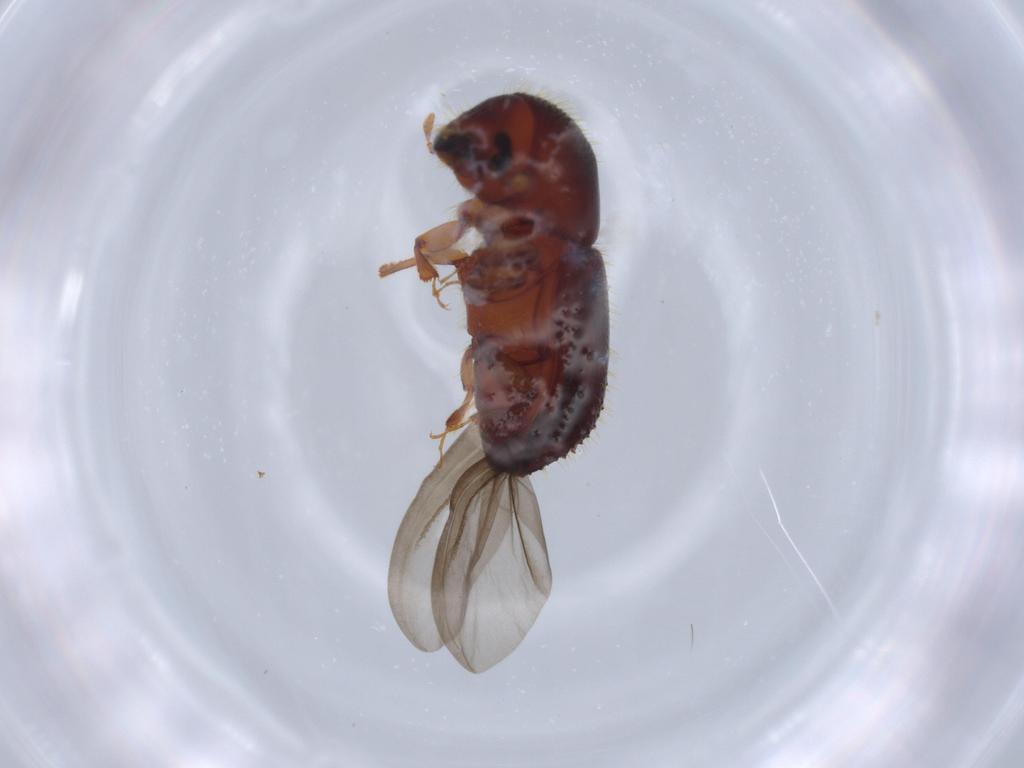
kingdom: Animalia
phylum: Arthropoda
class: Insecta
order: Coleoptera
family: Curculionidae
